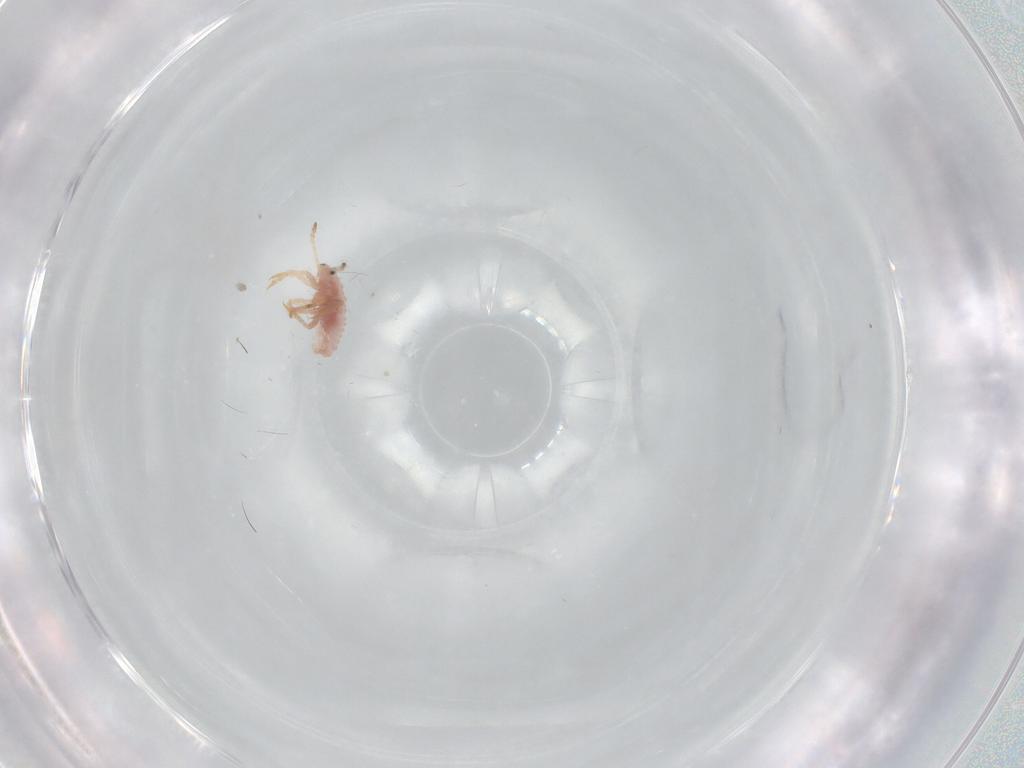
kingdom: Animalia
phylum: Arthropoda
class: Insecta
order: Hemiptera
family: Coccoidea_incertae_sedis
